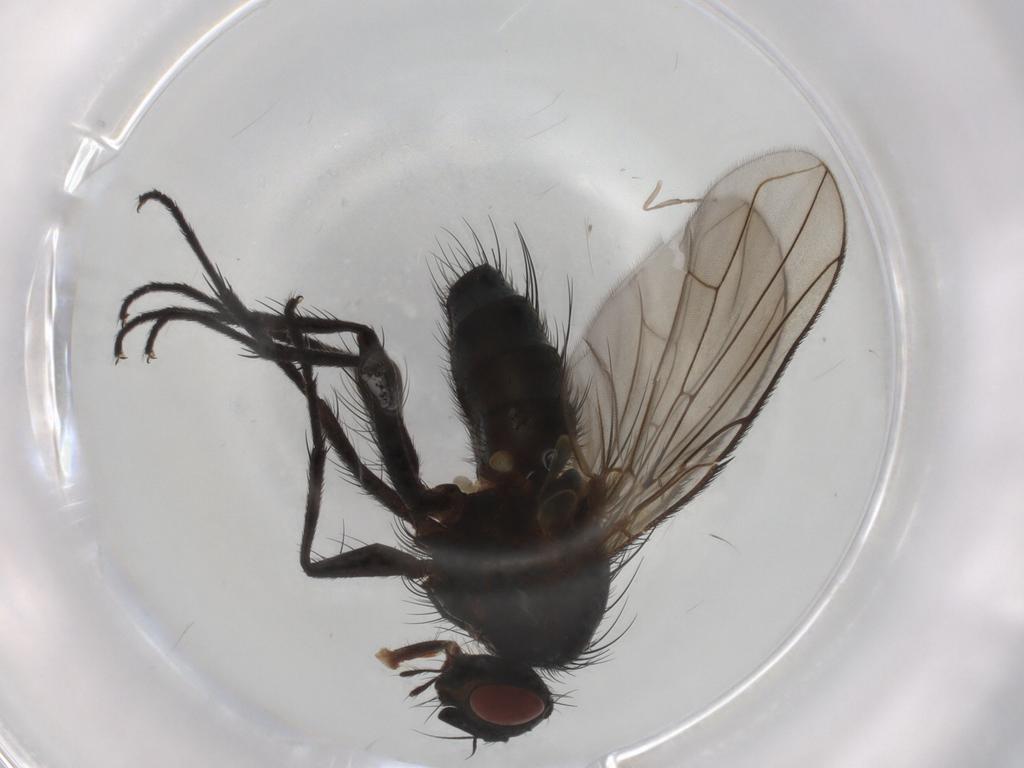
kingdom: Animalia
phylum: Arthropoda
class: Insecta
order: Diptera
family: Tachinidae
